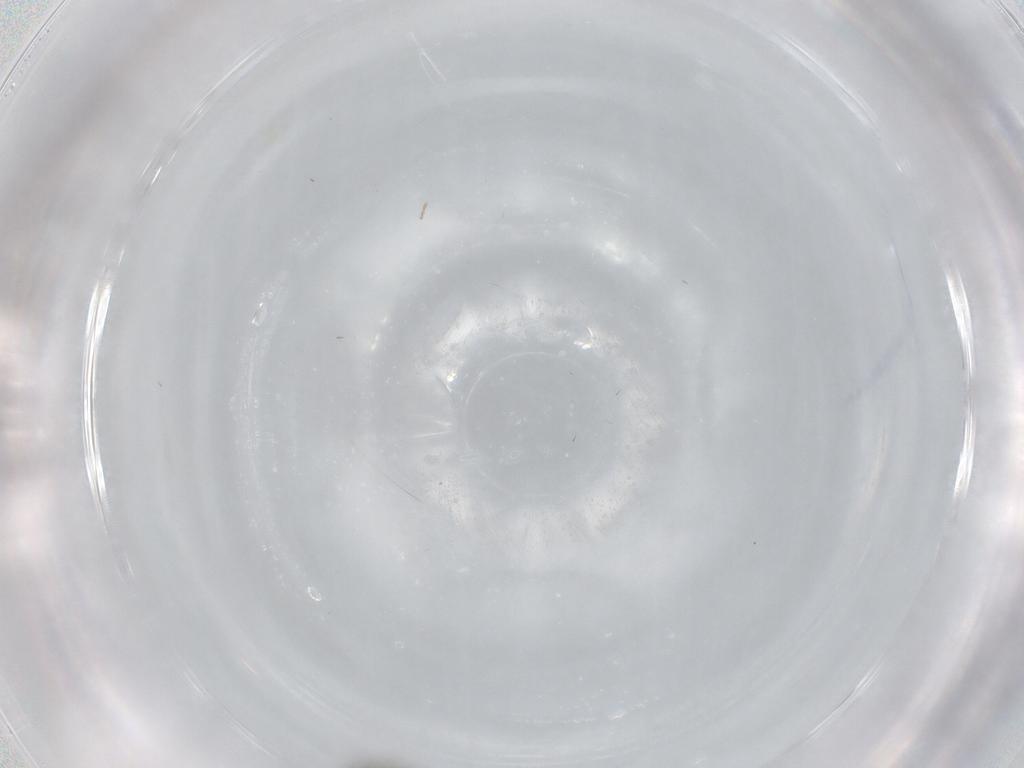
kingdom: Animalia
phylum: Arthropoda
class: Insecta
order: Diptera
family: Ceratopogonidae
